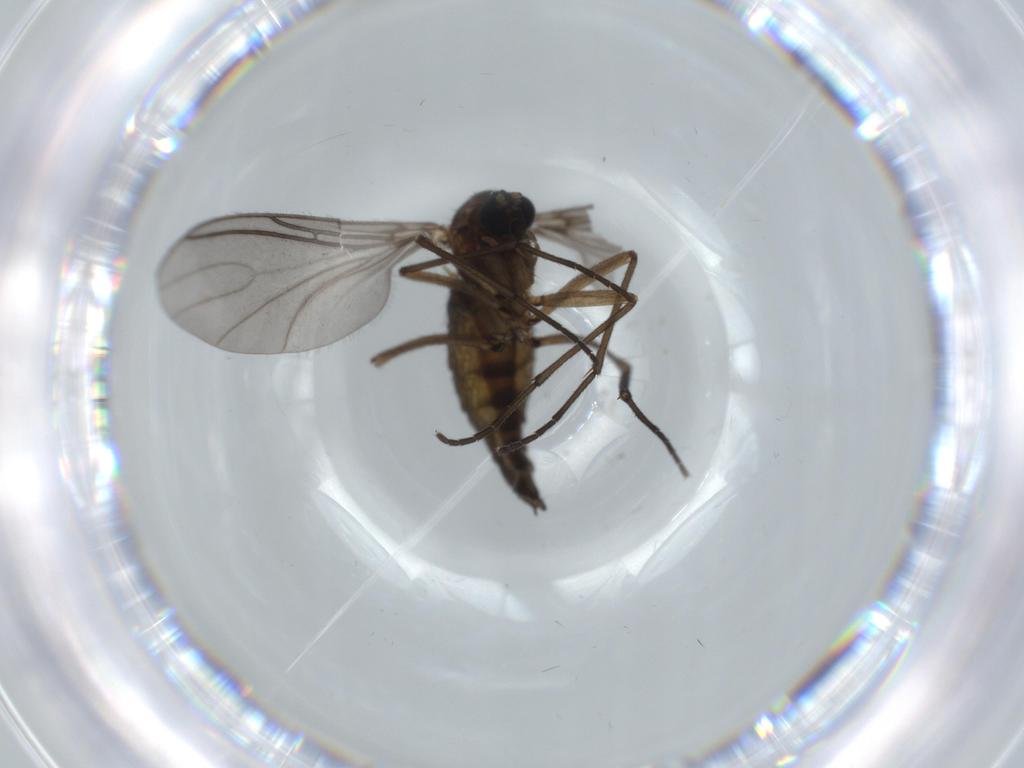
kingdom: Animalia
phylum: Arthropoda
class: Insecta
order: Diptera
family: Sciaridae
